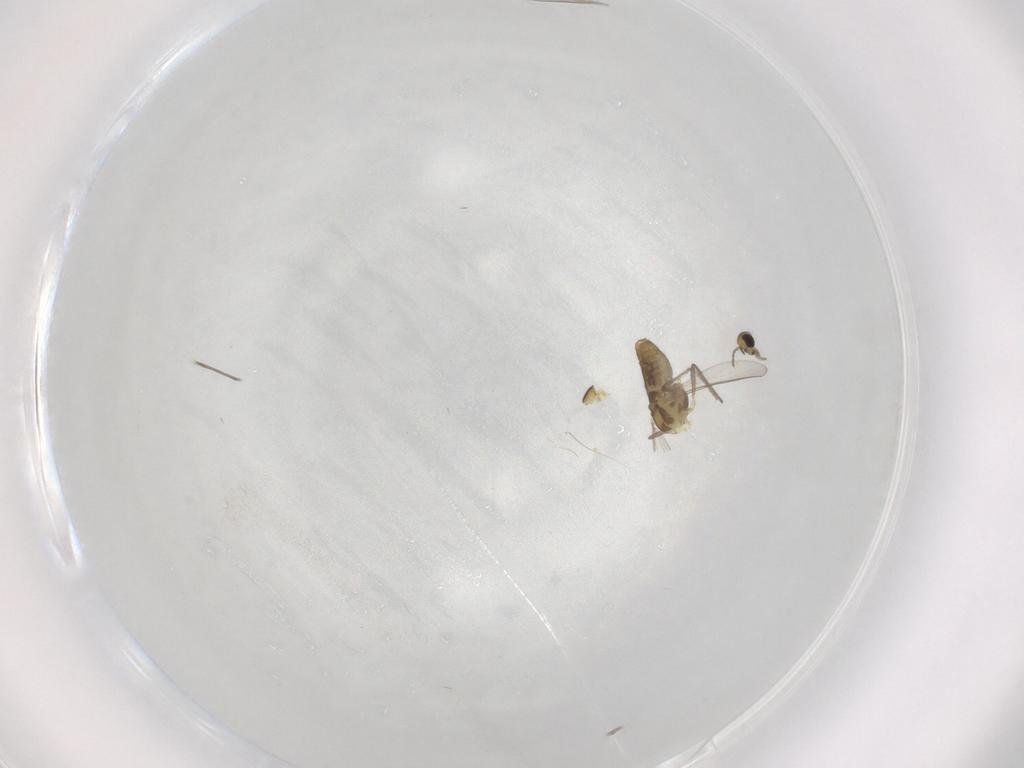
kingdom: Animalia
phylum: Arthropoda
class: Insecta
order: Diptera
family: Chironomidae
